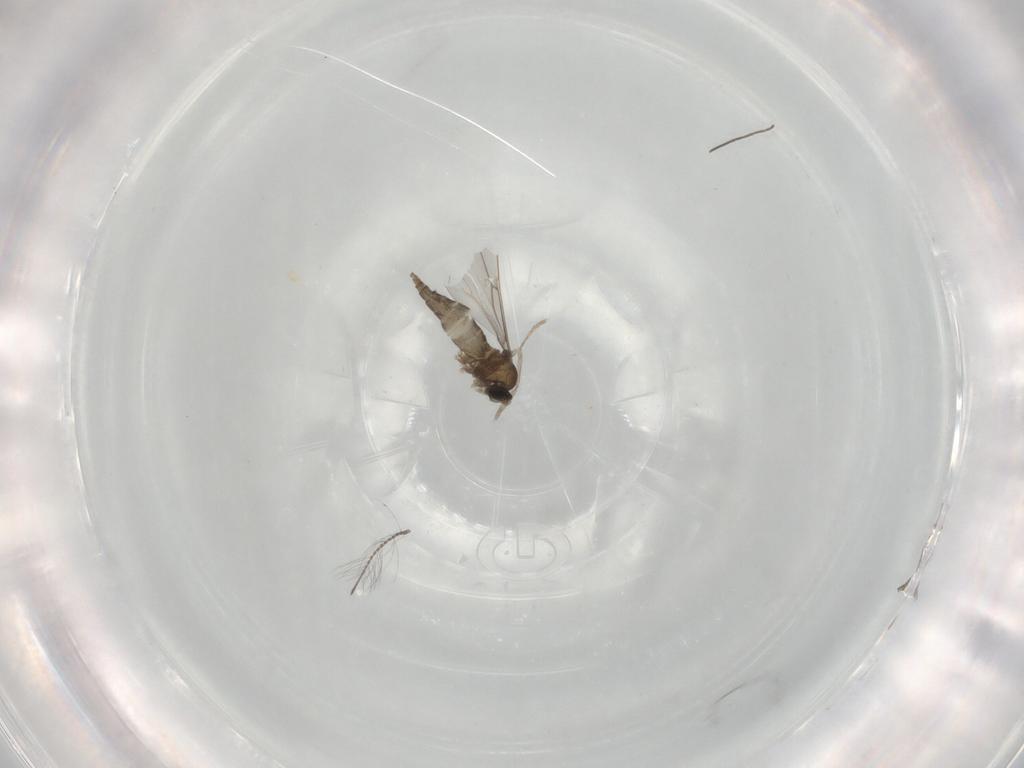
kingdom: Animalia
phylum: Arthropoda
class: Insecta
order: Diptera
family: Cecidomyiidae
